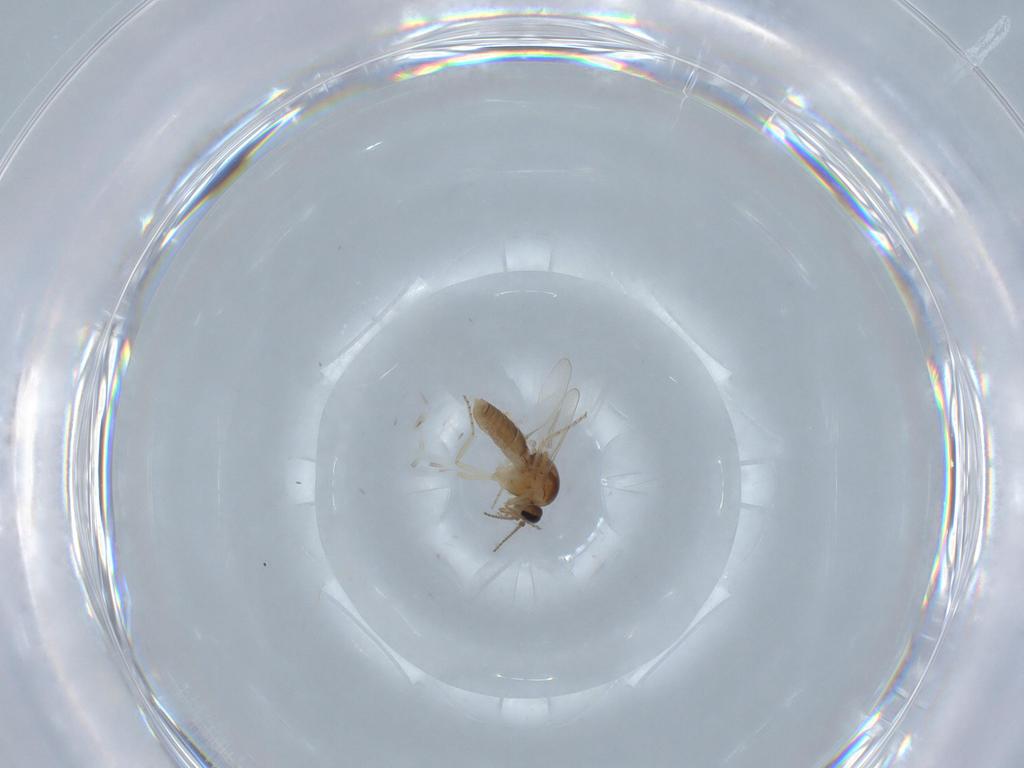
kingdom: Animalia
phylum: Arthropoda
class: Insecta
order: Diptera
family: Ceratopogonidae
